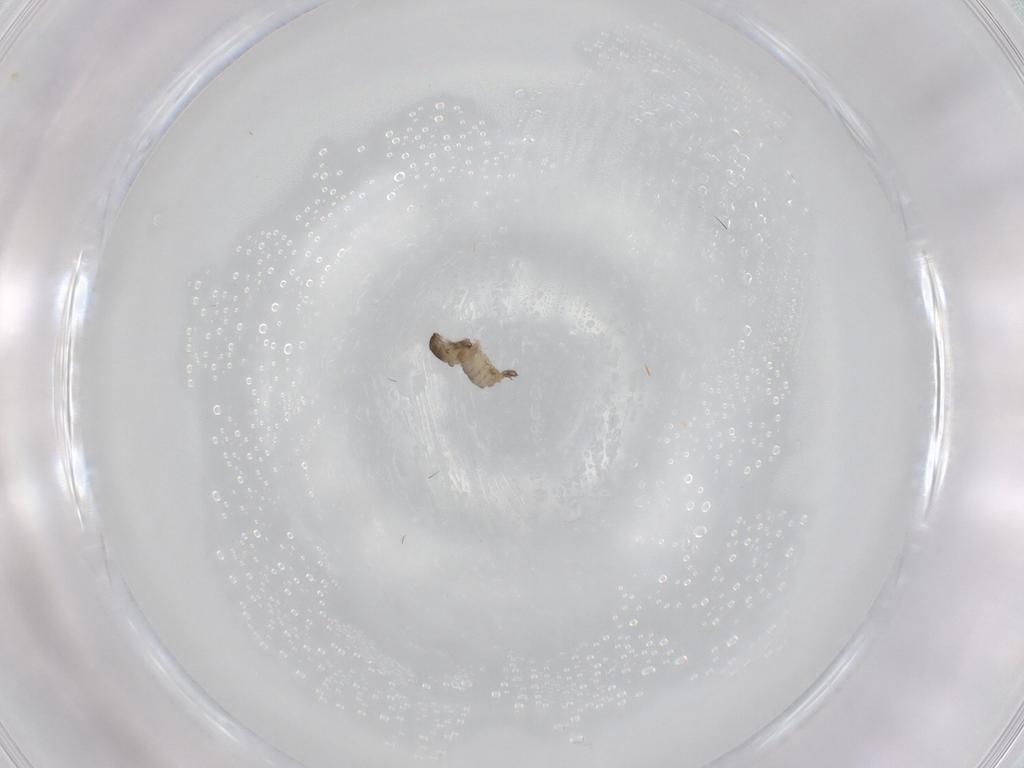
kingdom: Animalia
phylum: Arthropoda
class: Insecta
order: Diptera
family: Cecidomyiidae
